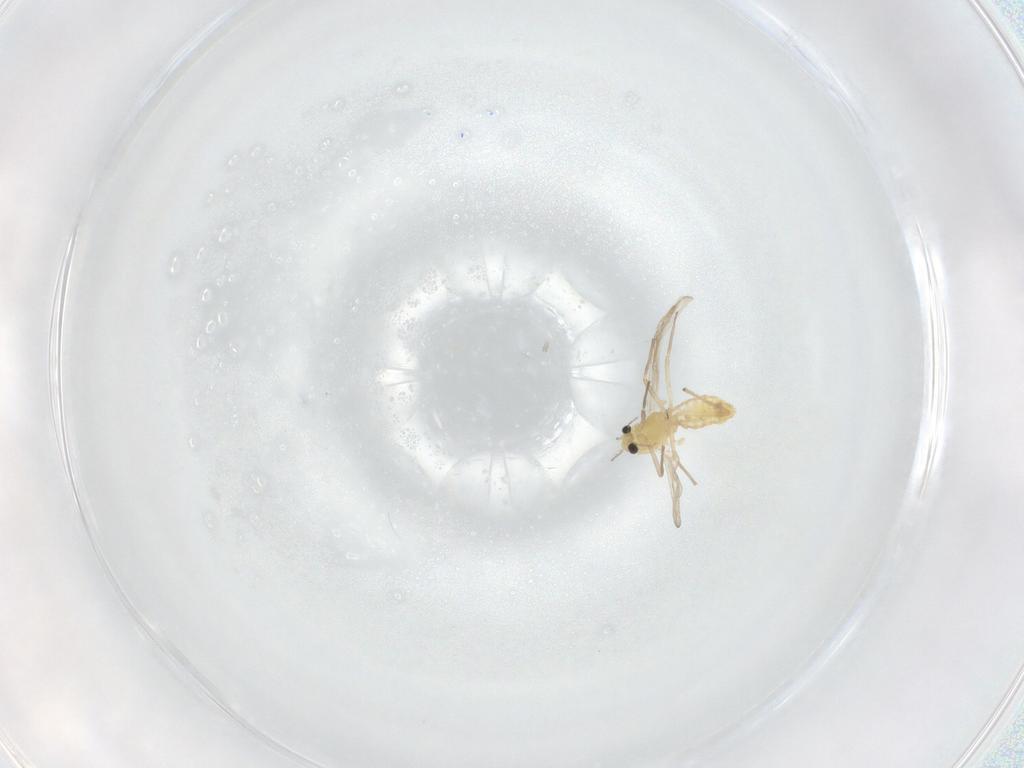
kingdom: Animalia
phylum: Arthropoda
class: Insecta
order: Diptera
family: Chironomidae
